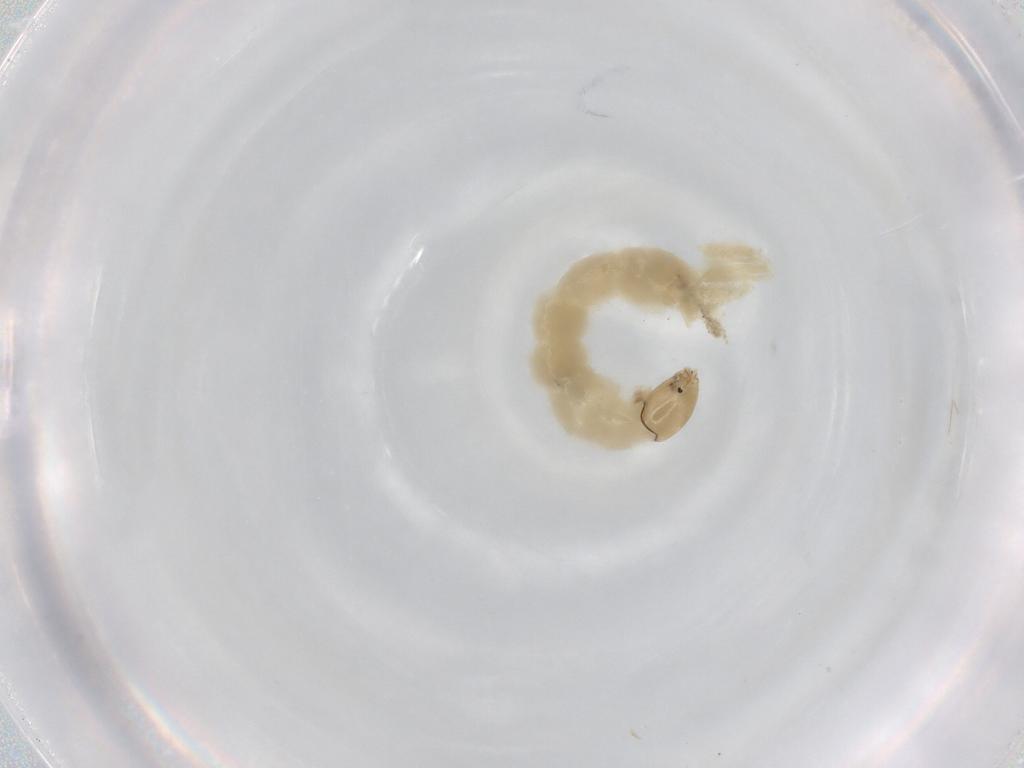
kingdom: Animalia
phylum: Arthropoda
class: Insecta
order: Diptera
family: Chironomidae
